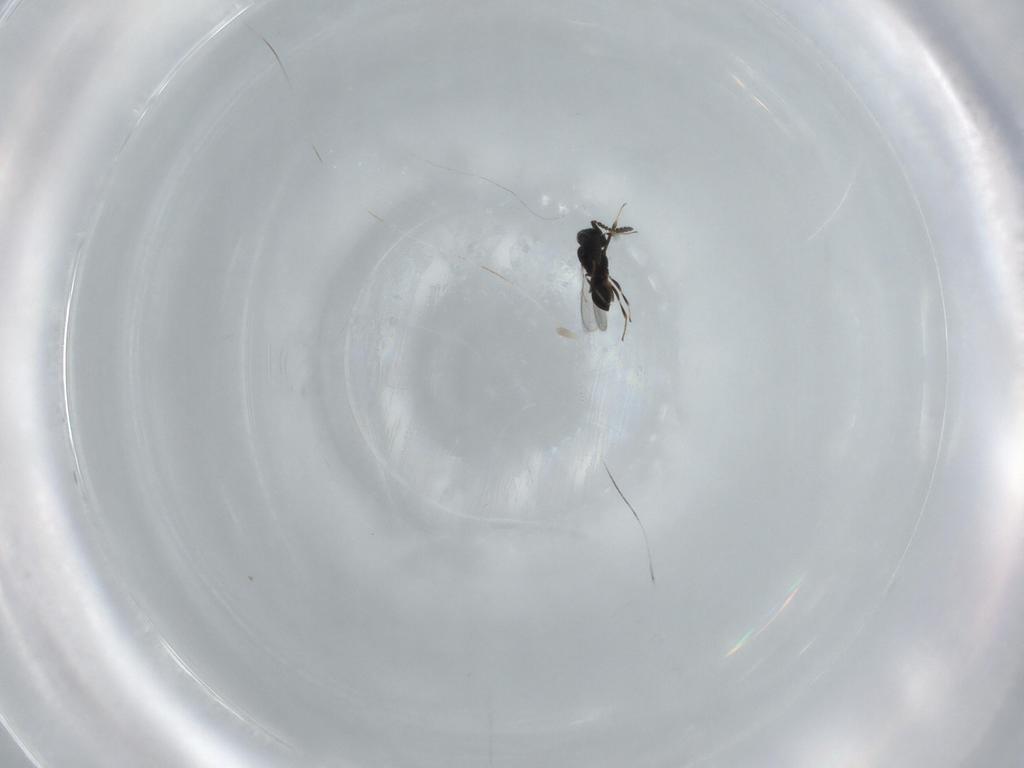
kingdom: Animalia
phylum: Arthropoda
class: Insecta
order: Hymenoptera
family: Scelionidae
